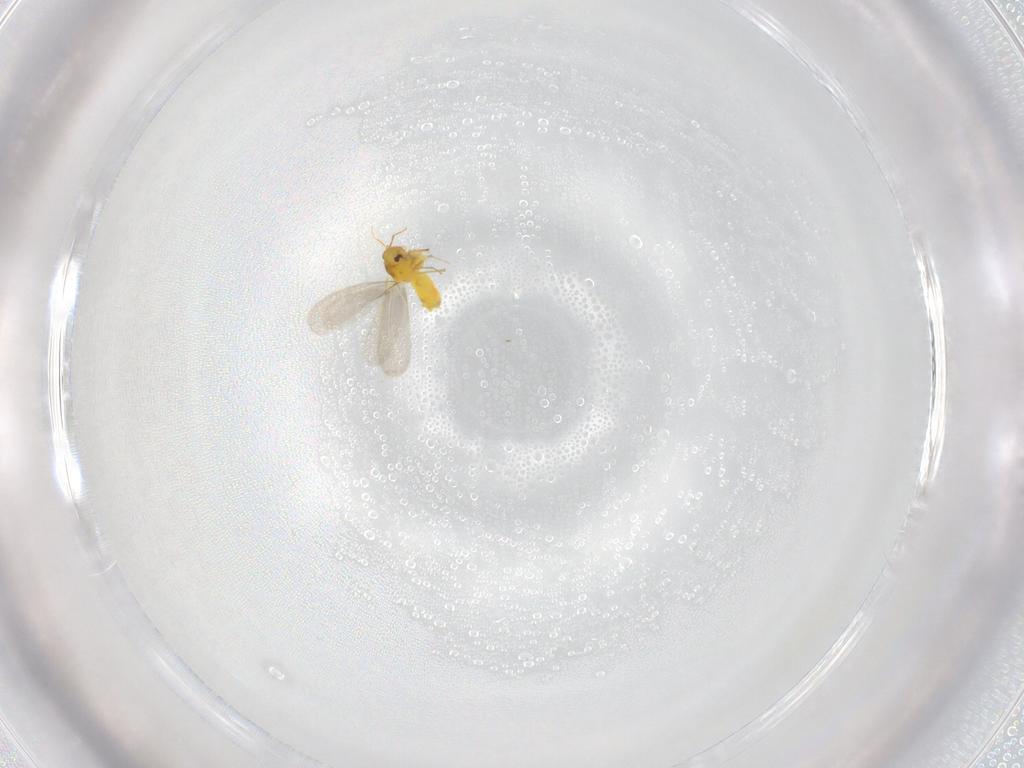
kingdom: Animalia
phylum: Arthropoda
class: Insecta
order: Hemiptera
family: Aleyrodidae
